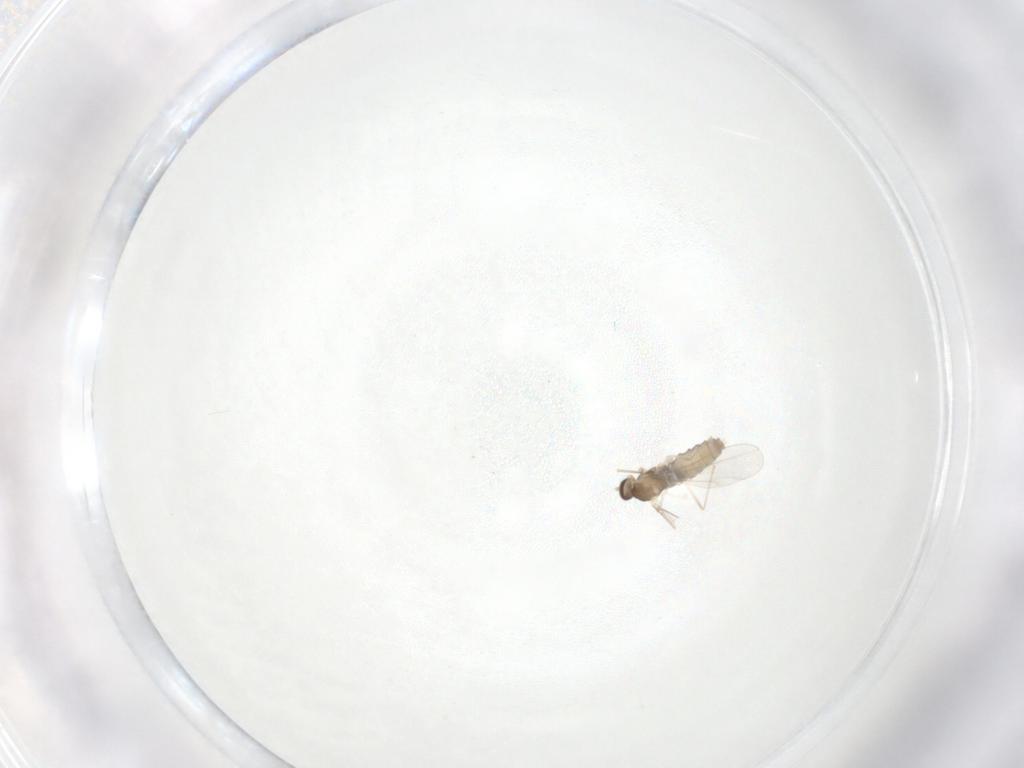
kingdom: Animalia
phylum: Arthropoda
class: Insecta
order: Diptera
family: Cecidomyiidae
